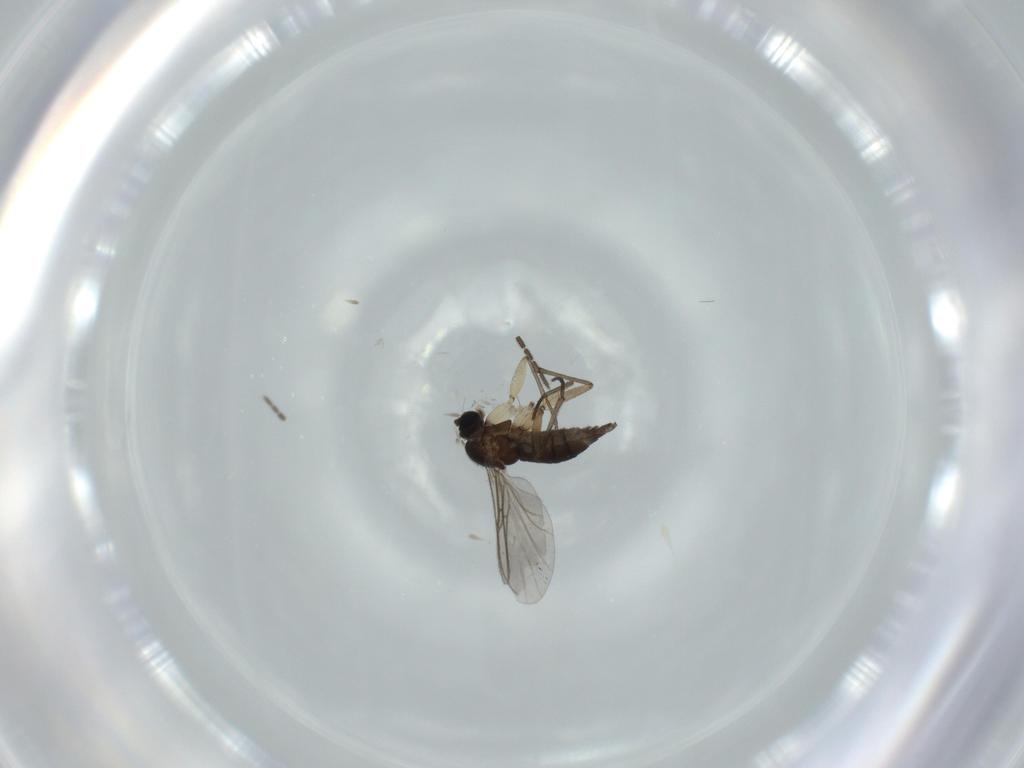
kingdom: Animalia
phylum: Arthropoda
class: Insecta
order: Diptera
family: Sciaridae
